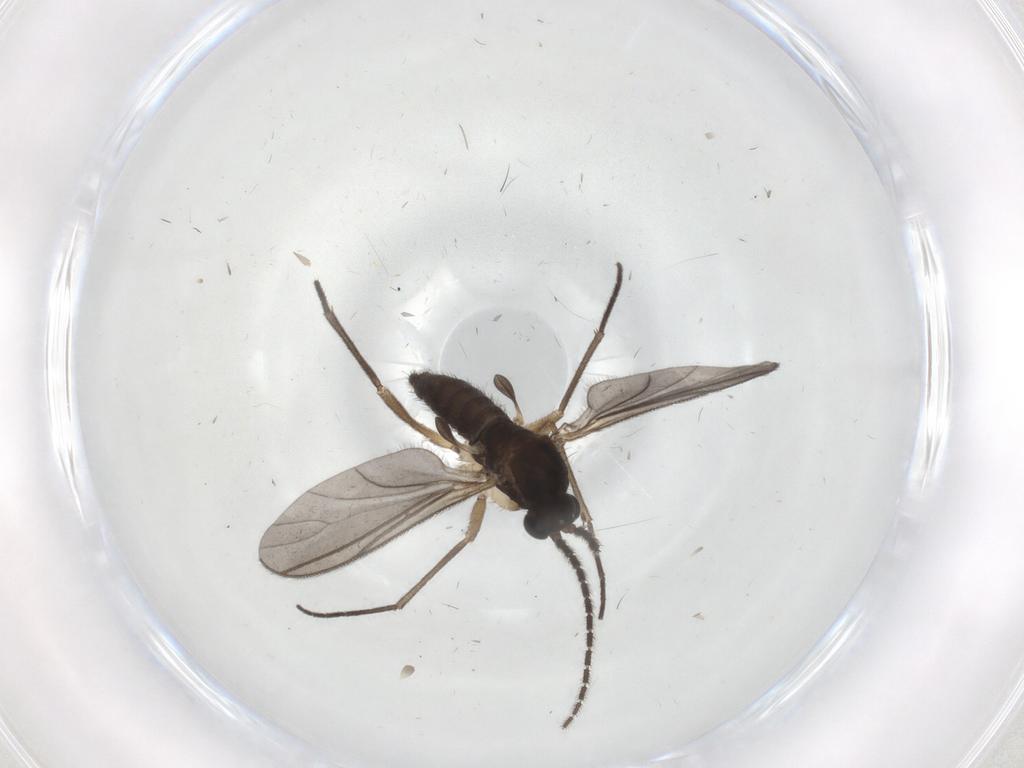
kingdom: Animalia
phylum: Arthropoda
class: Insecta
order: Diptera
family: Sciaridae
